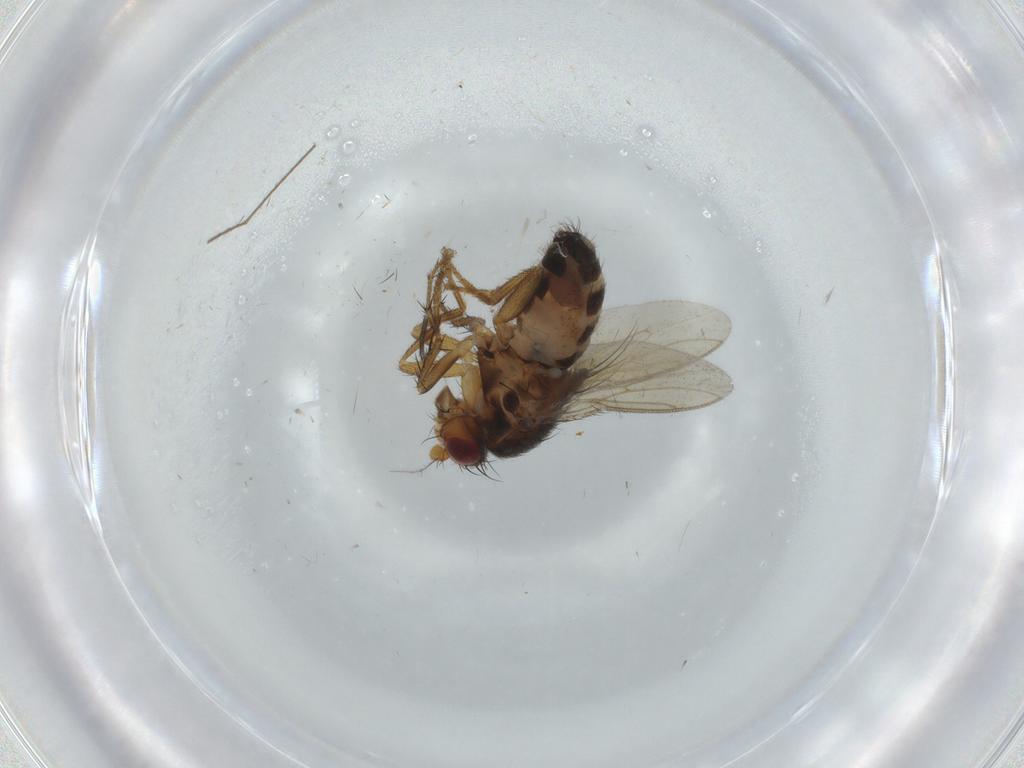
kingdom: Animalia
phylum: Arthropoda
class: Insecta
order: Diptera
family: Sphaeroceridae
